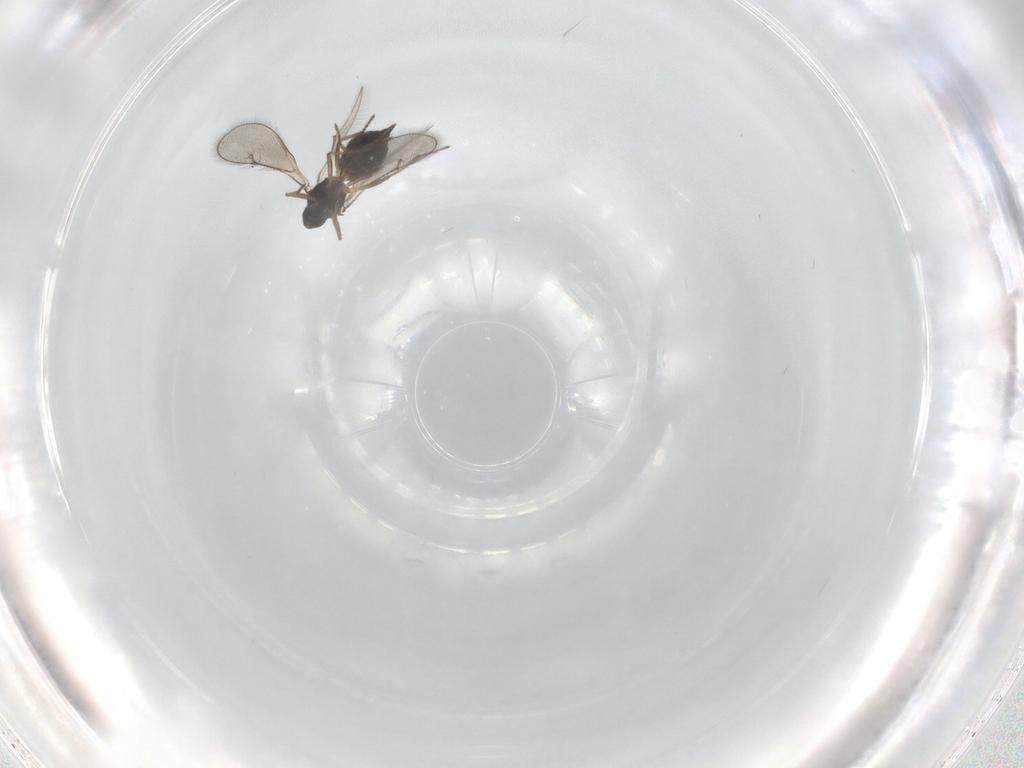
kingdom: Animalia
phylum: Arthropoda
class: Insecta
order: Hymenoptera
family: Eulophidae
